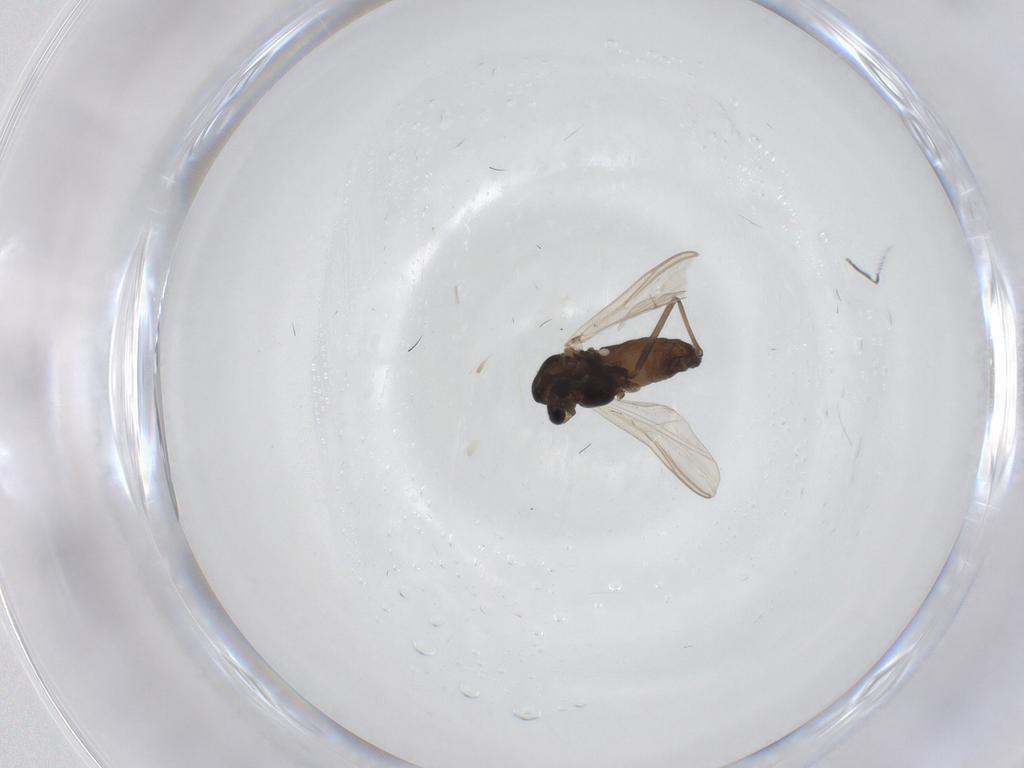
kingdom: Animalia
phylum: Arthropoda
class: Insecta
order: Diptera
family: Chironomidae
